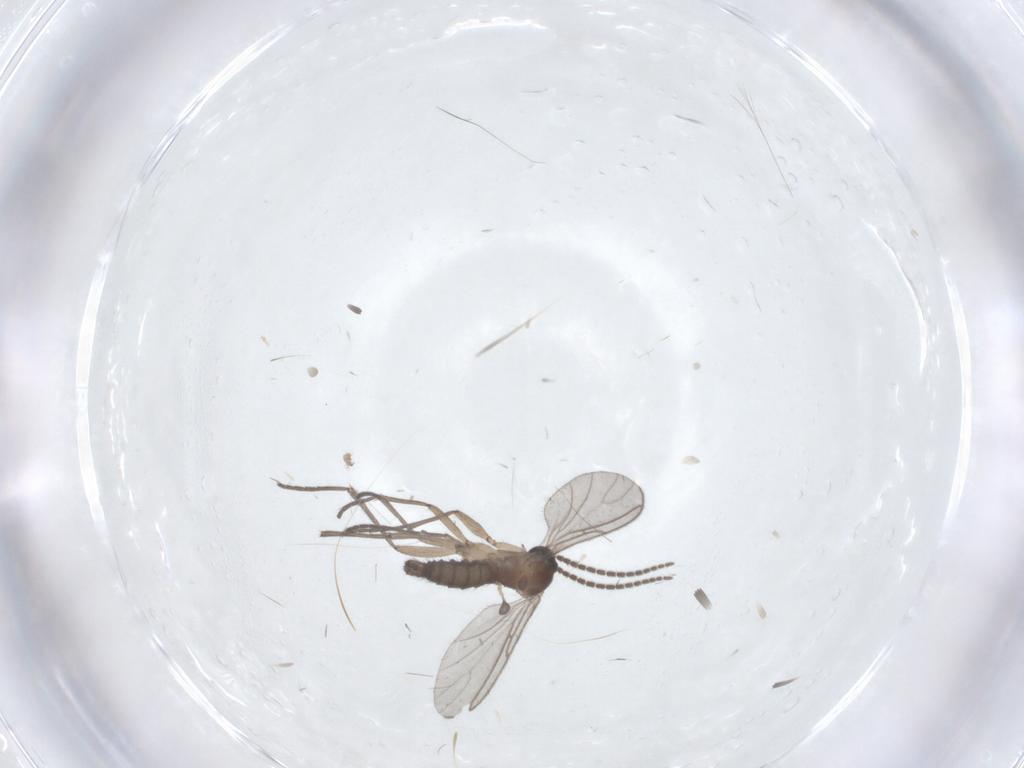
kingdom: Animalia
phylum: Arthropoda
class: Insecta
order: Diptera
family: Sciaridae
